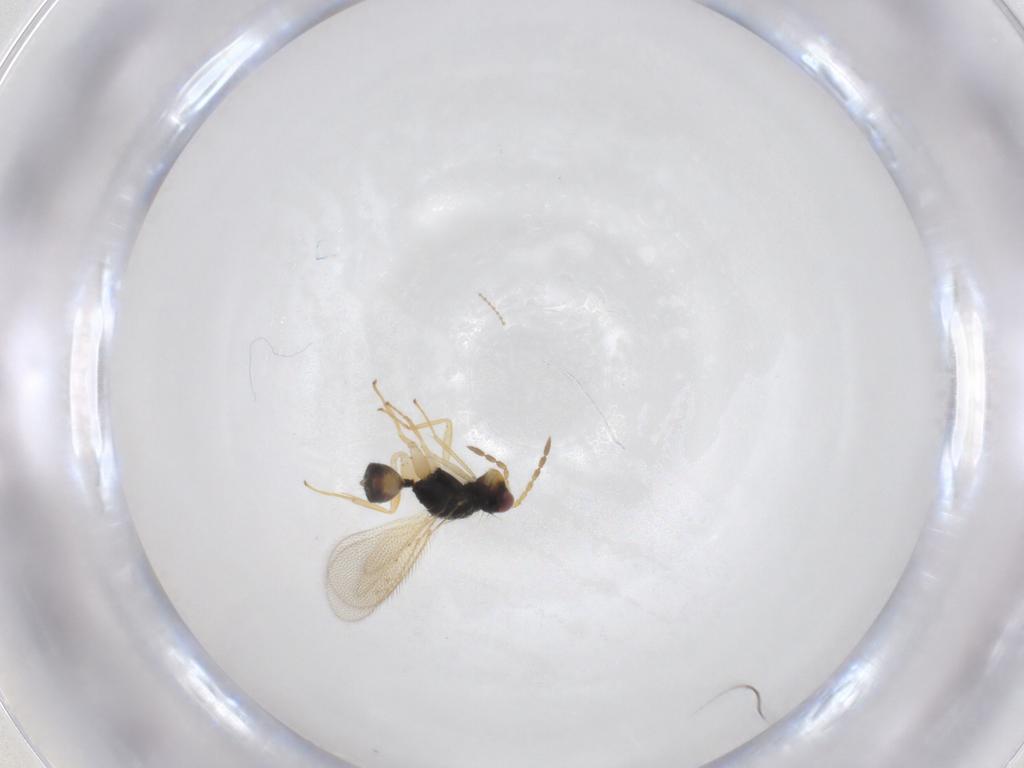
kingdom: Animalia
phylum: Arthropoda
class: Insecta
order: Hymenoptera
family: Eulophidae
